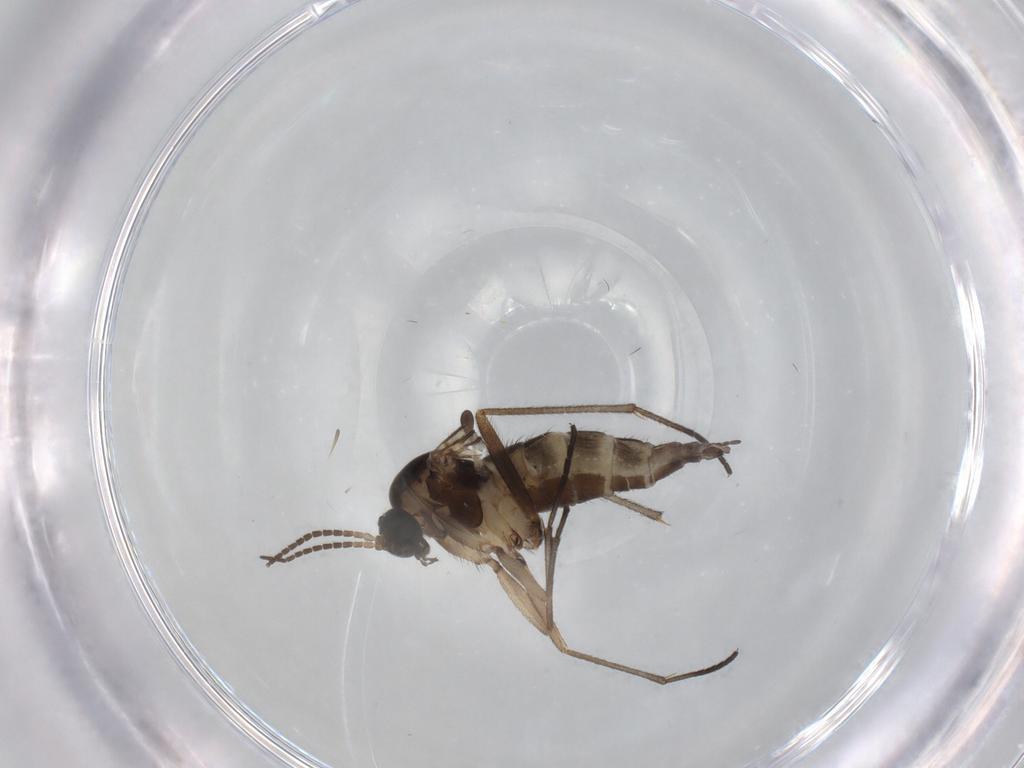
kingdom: Animalia
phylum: Arthropoda
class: Insecta
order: Diptera
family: Sciaridae
